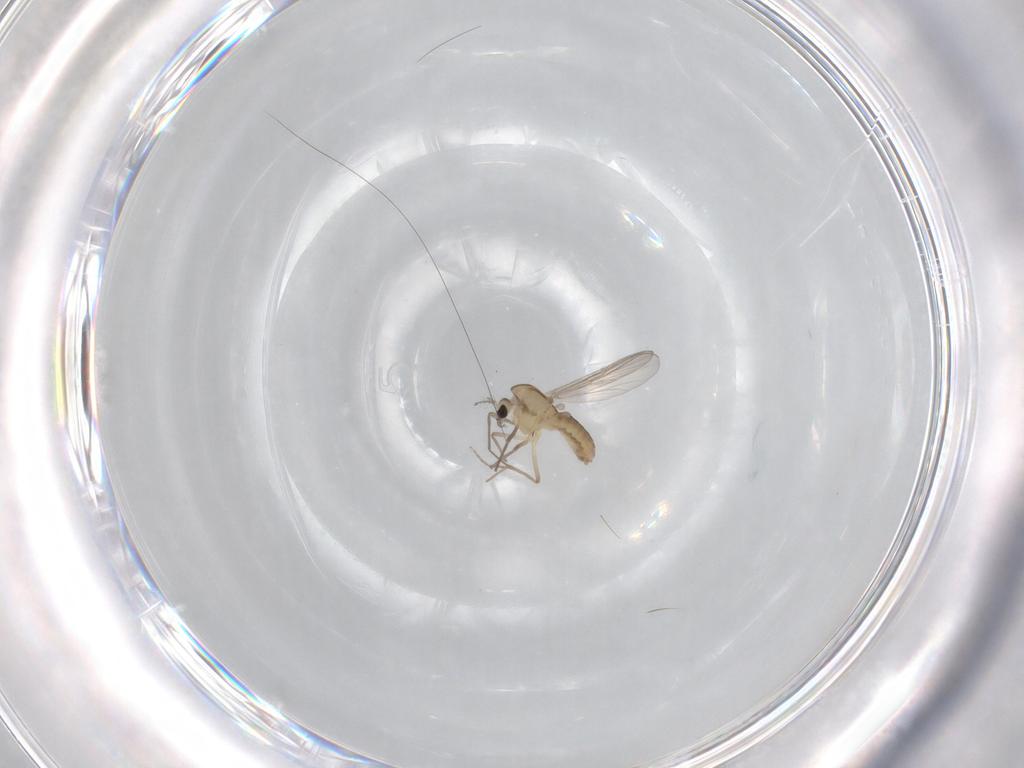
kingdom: Animalia
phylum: Arthropoda
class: Insecta
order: Diptera
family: Chironomidae
